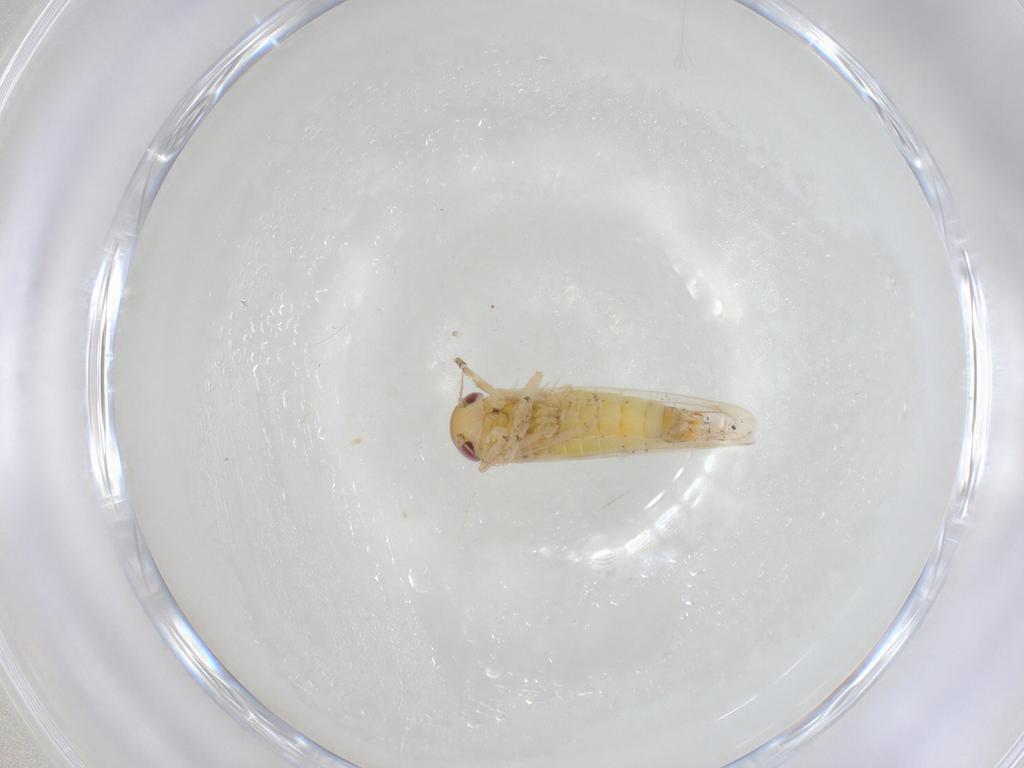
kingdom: Animalia
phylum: Arthropoda
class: Insecta
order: Hemiptera
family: Cicadellidae
